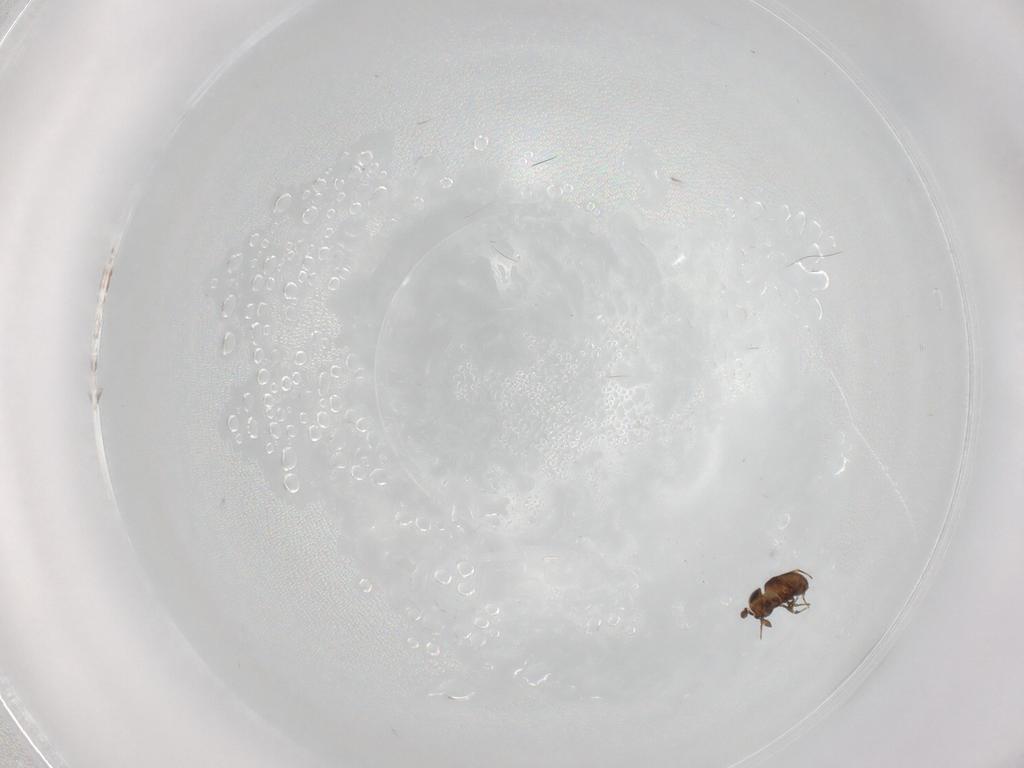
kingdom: Animalia
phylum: Arthropoda
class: Insecta
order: Hymenoptera
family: Scelionidae
